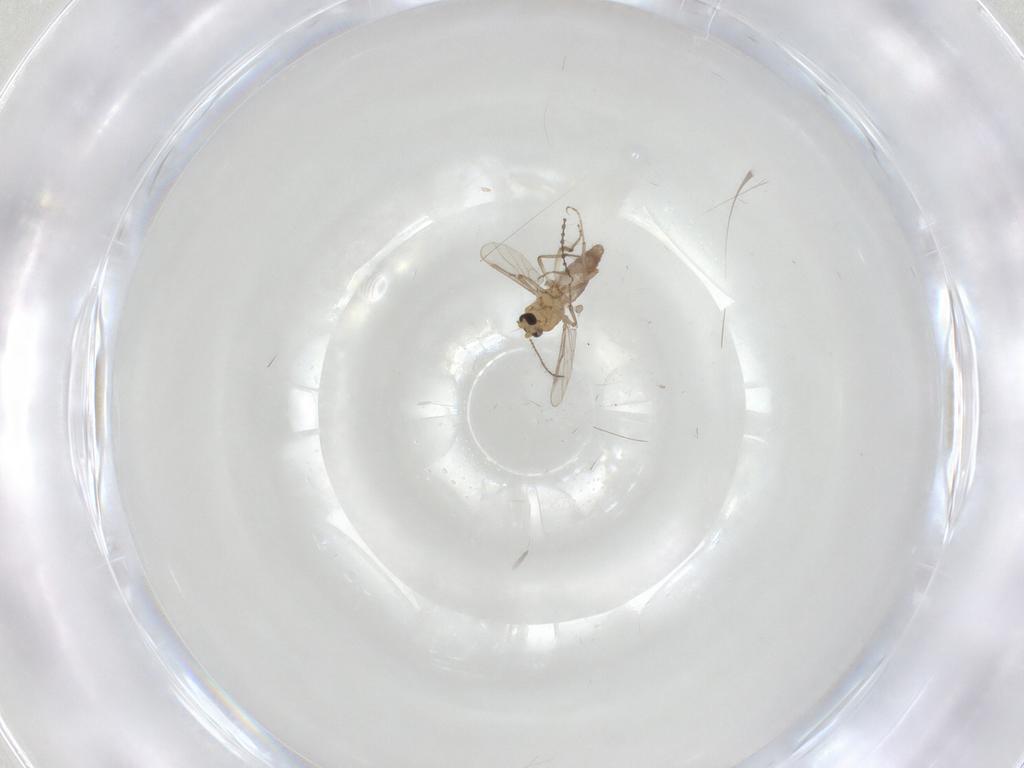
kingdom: Animalia
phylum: Arthropoda
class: Insecta
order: Diptera
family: Cecidomyiidae
